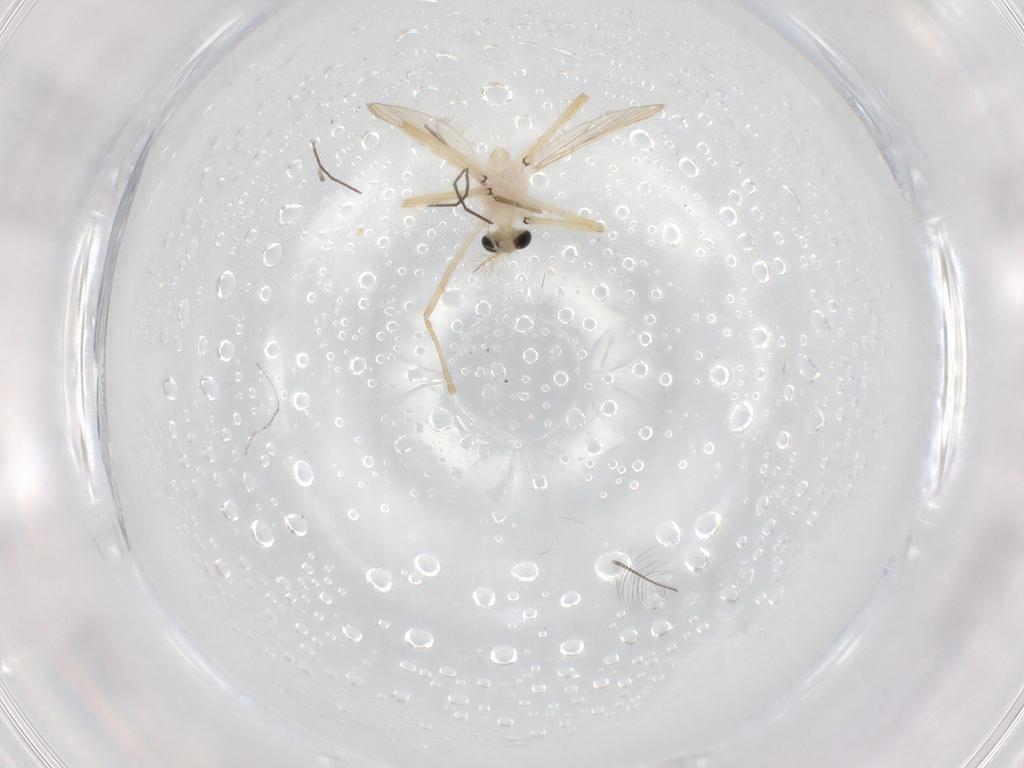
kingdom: Animalia
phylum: Arthropoda
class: Insecta
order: Diptera
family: Chironomidae
